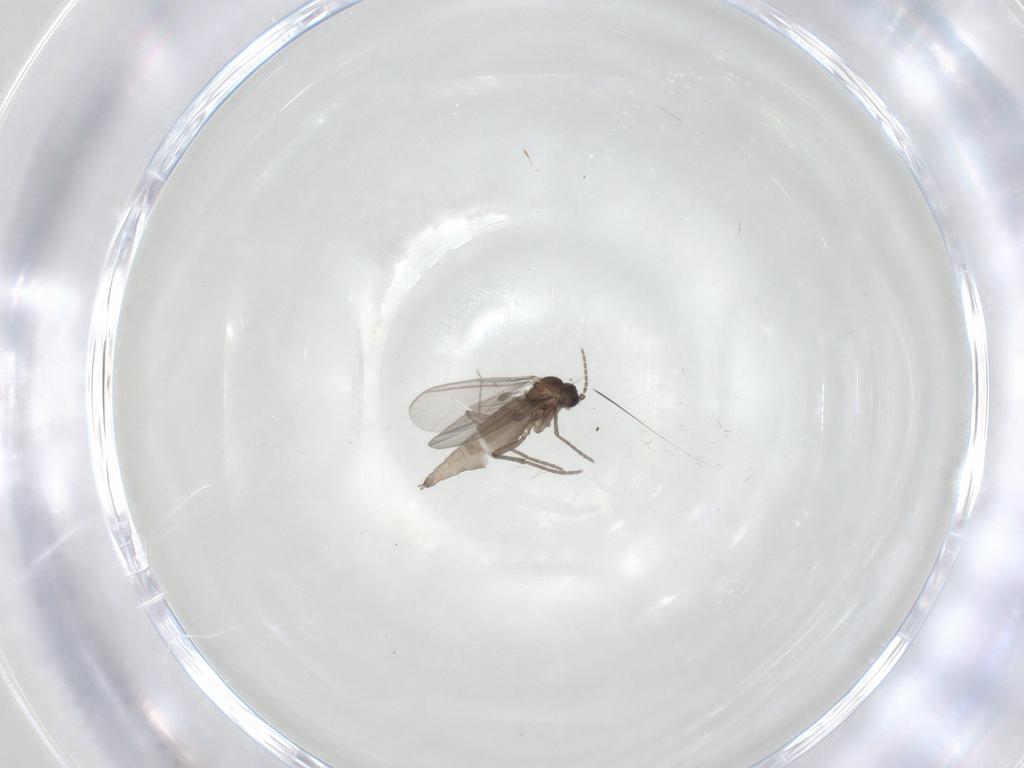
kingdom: Animalia
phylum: Arthropoda
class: Insecta
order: Diptera
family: Sciaridae
